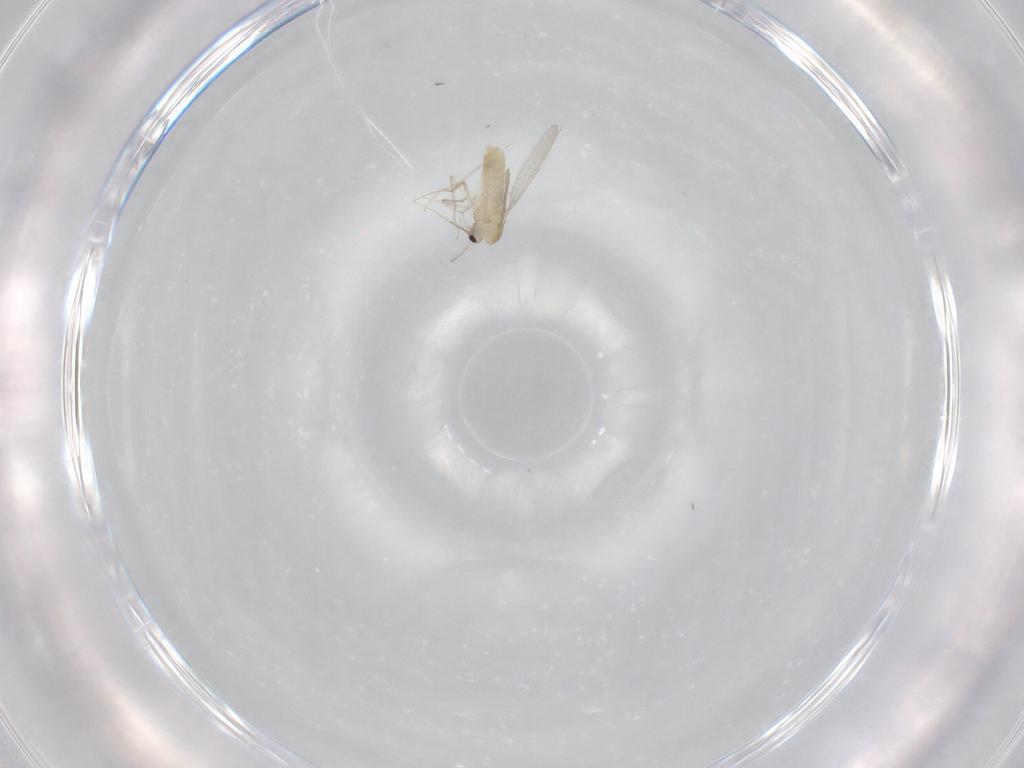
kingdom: Animalia
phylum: Arthropoda
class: Insecta
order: Diptera
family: Chironomidae
